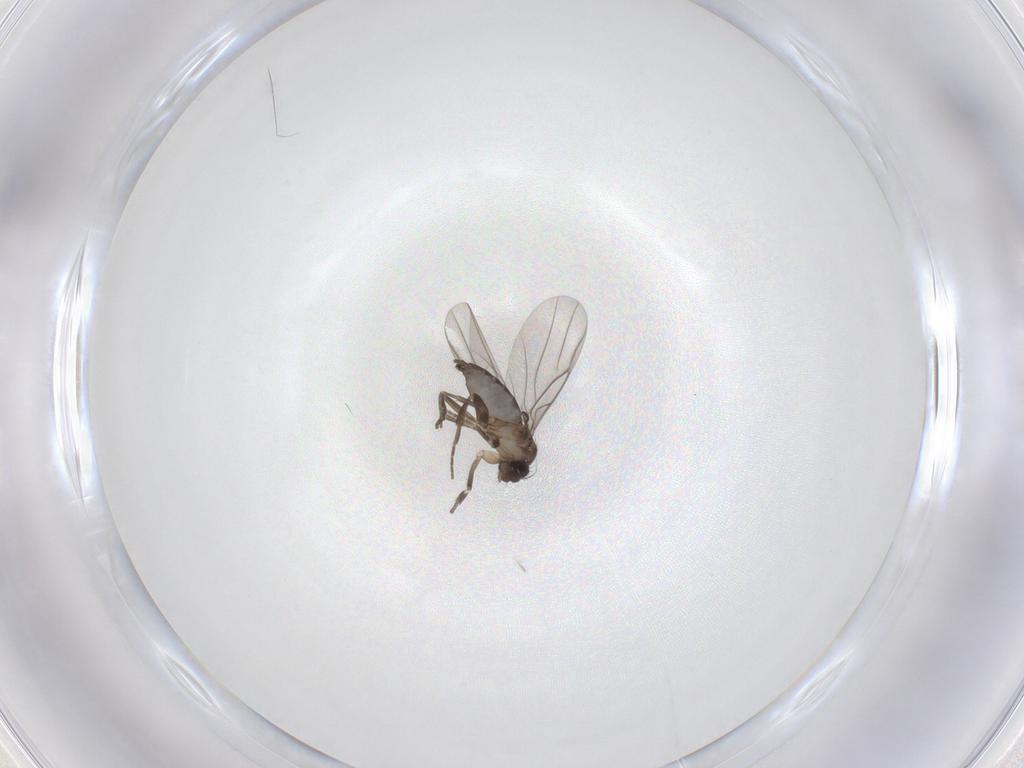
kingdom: Animalia
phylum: Arthropoda
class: Insecta
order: Diptera
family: Phoridae
